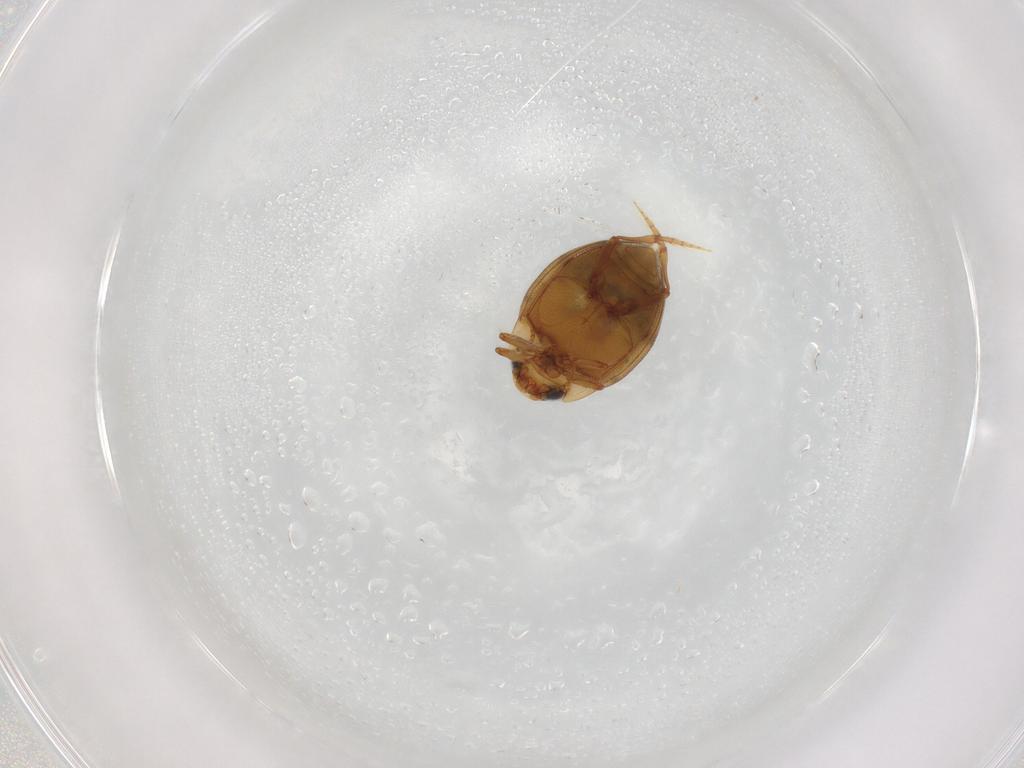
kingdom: Animalia
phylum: Arthropoda
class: Insecta
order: Coleoptera
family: Dytiscidae
